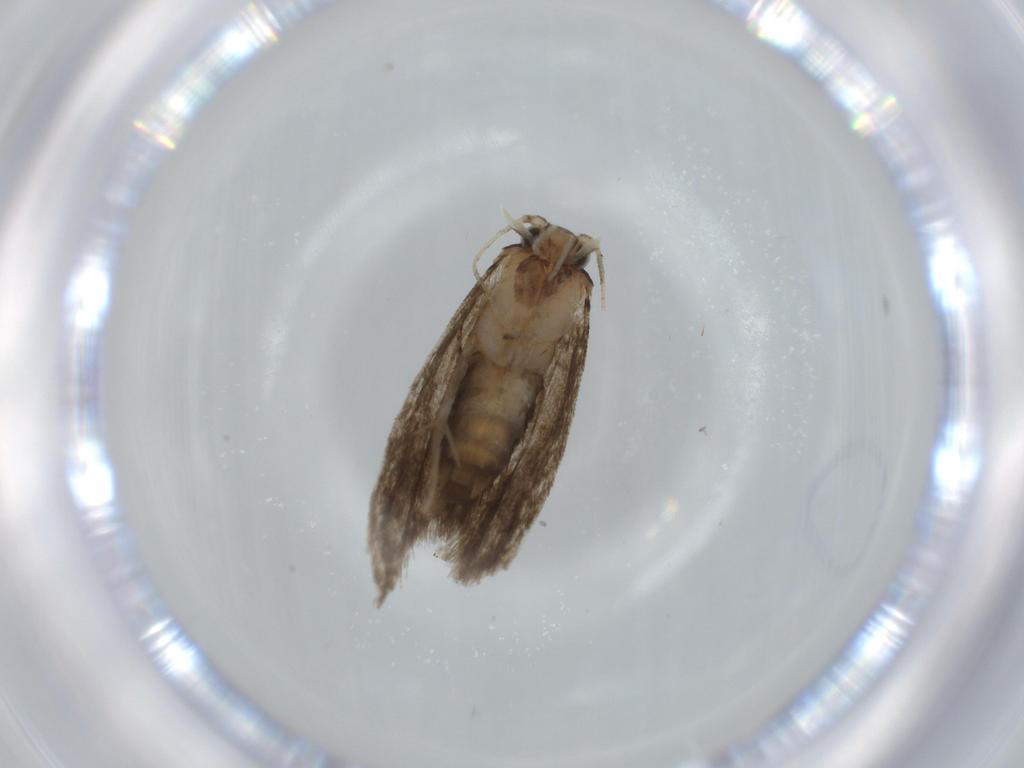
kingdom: Animalia
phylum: Arthropoda
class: Insecta
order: Lepidoptera
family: Tineidae
